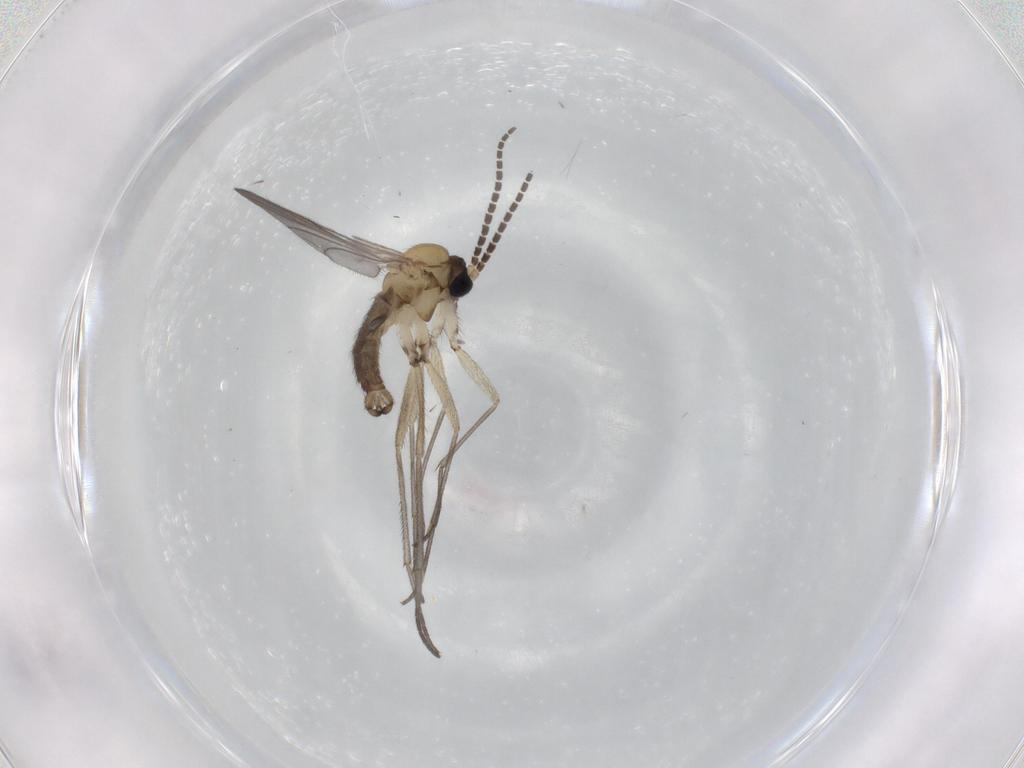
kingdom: Animalia
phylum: Arthropoda
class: Insecta
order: Diptera
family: Sciaridae
